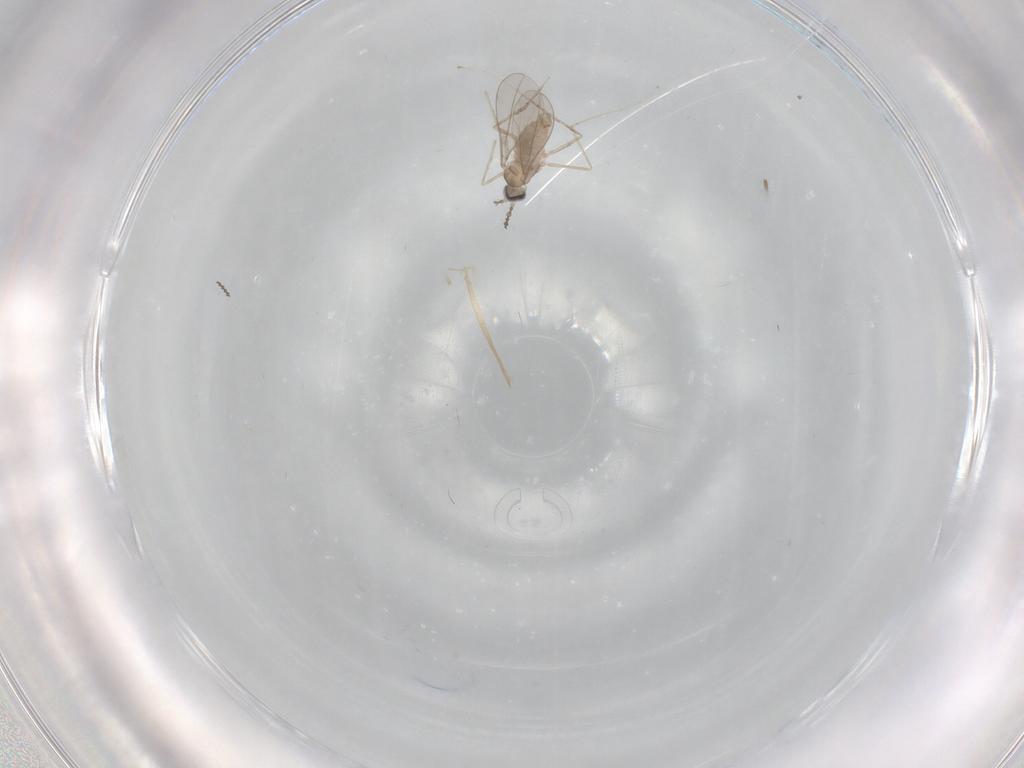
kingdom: Animalia
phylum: Arthropoda
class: Insecta
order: Diptera
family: Cecidomyiidae
